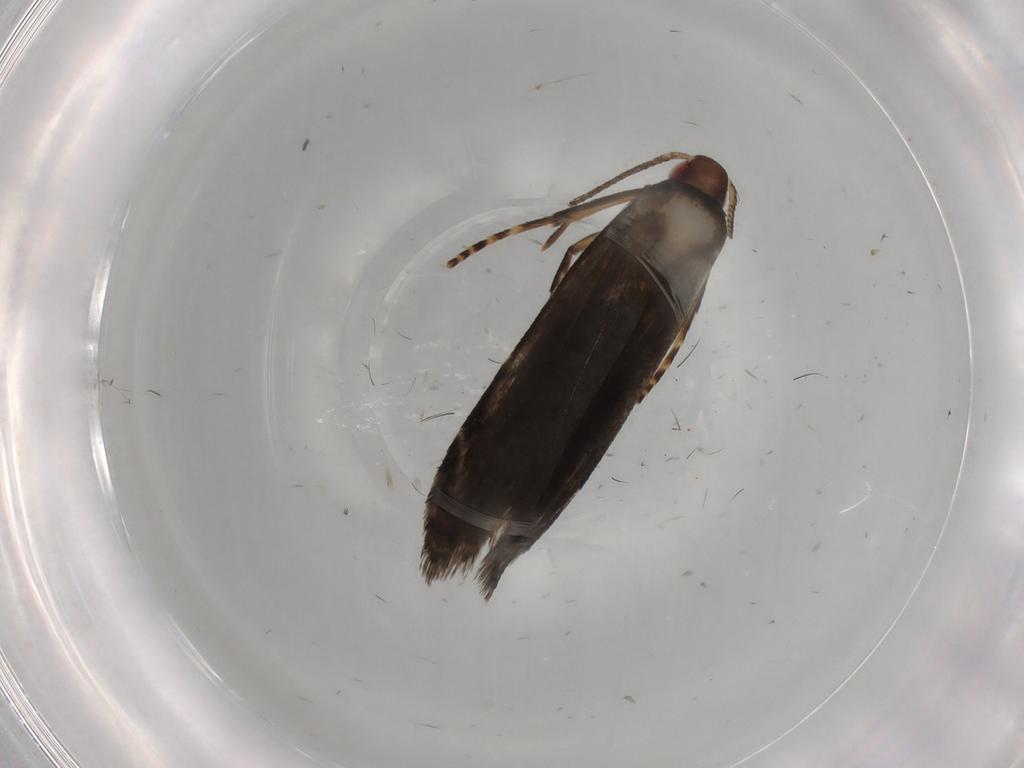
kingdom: Animalia
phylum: Arthropoda
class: Insecta
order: Lepidoptera
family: Gelechiidae
